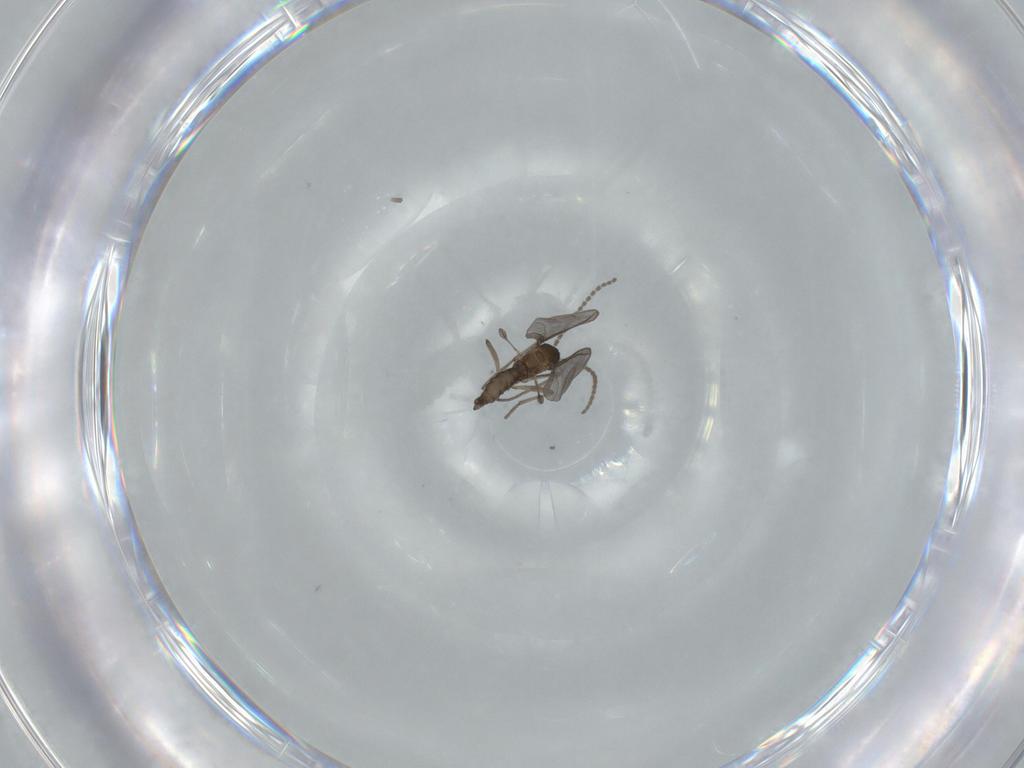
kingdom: Animalia
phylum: Arthropoda
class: Insecta
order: Diptera
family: Sciaridae
